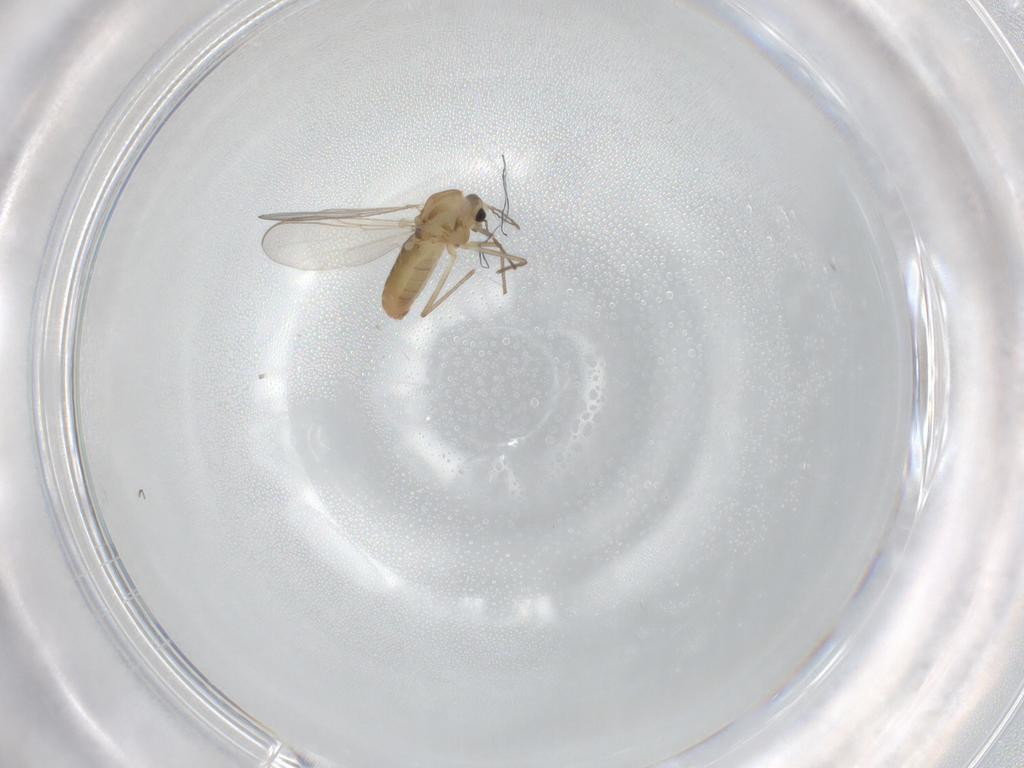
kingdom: Animalia
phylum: Arthropoda
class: Insecta
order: Diptera
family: Chironomidae
